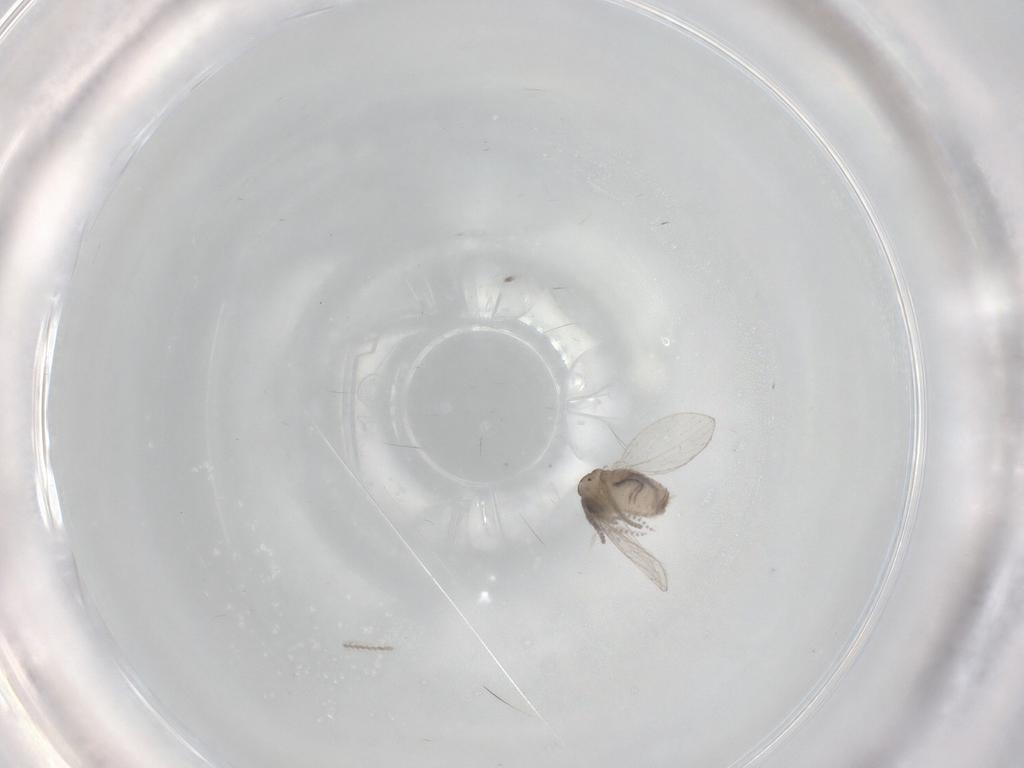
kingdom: Animalia
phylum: Arthropoda
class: Insecta
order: Diptera
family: Psychodidae
